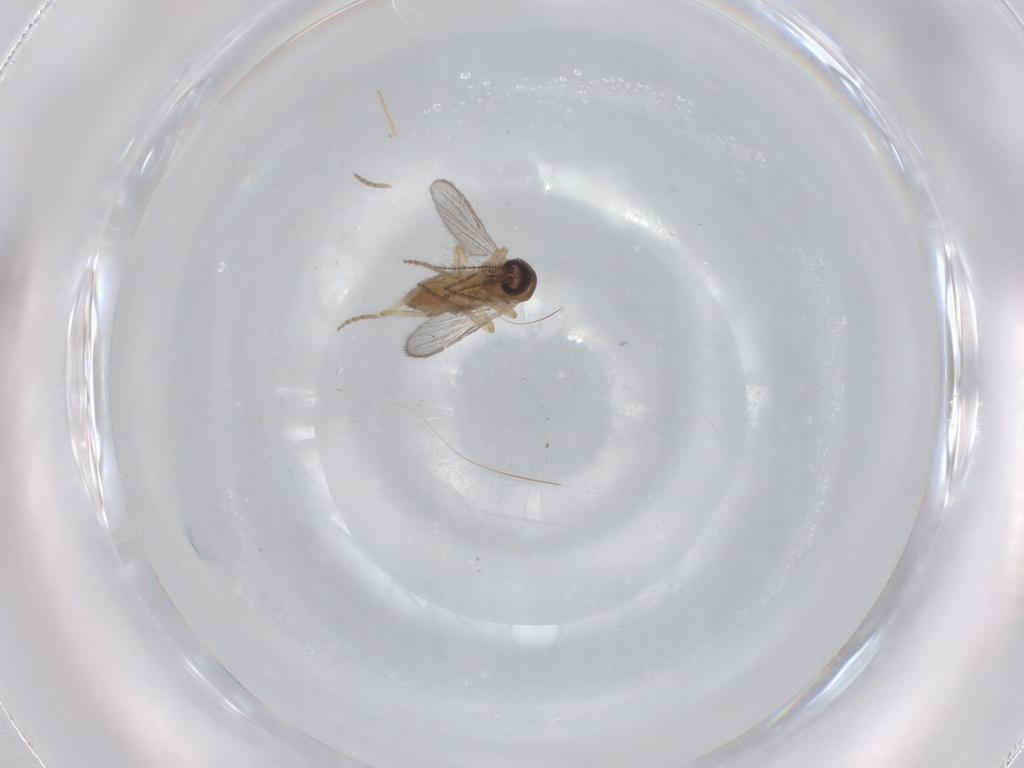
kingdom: Animalia
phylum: Arthropoda
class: Insecta
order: Diptera
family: Ceratopogonidae
